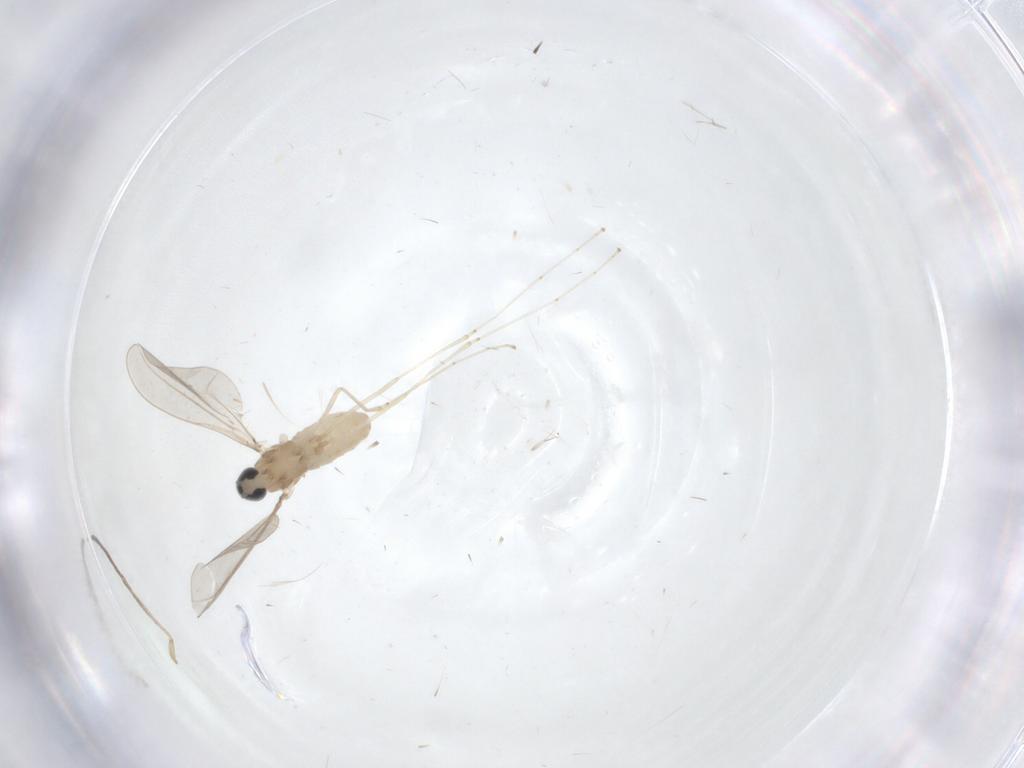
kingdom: Animalia
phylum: Arthropoda
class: Insecta
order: Diptera
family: Cecidomyiidae
